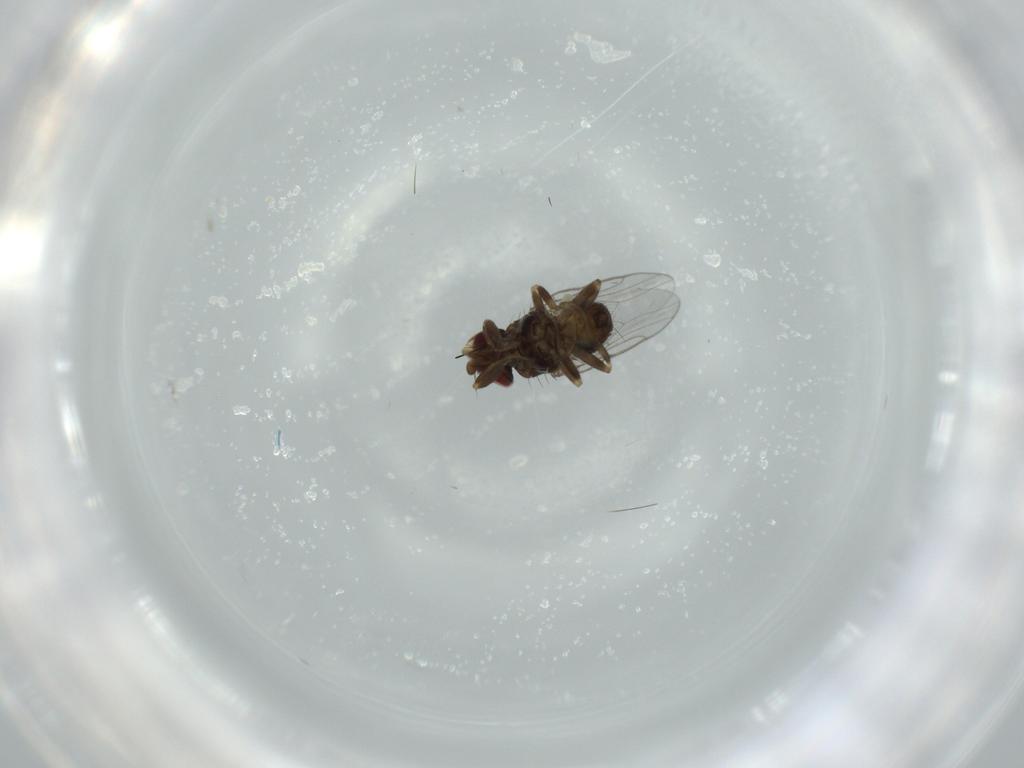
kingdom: Animalia
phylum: Arthropoda
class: Insecta
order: Diptera
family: Chloropidae
